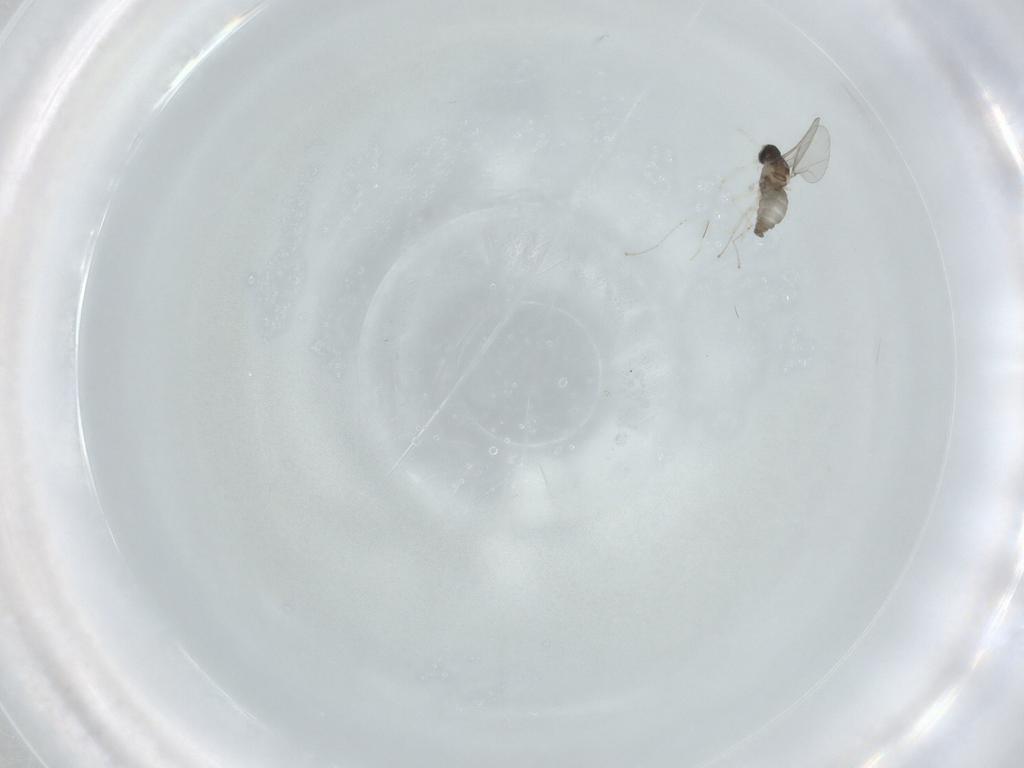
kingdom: Animalia
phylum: Arthropoda
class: Insecta
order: Diptera
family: Cecidomyiidae
